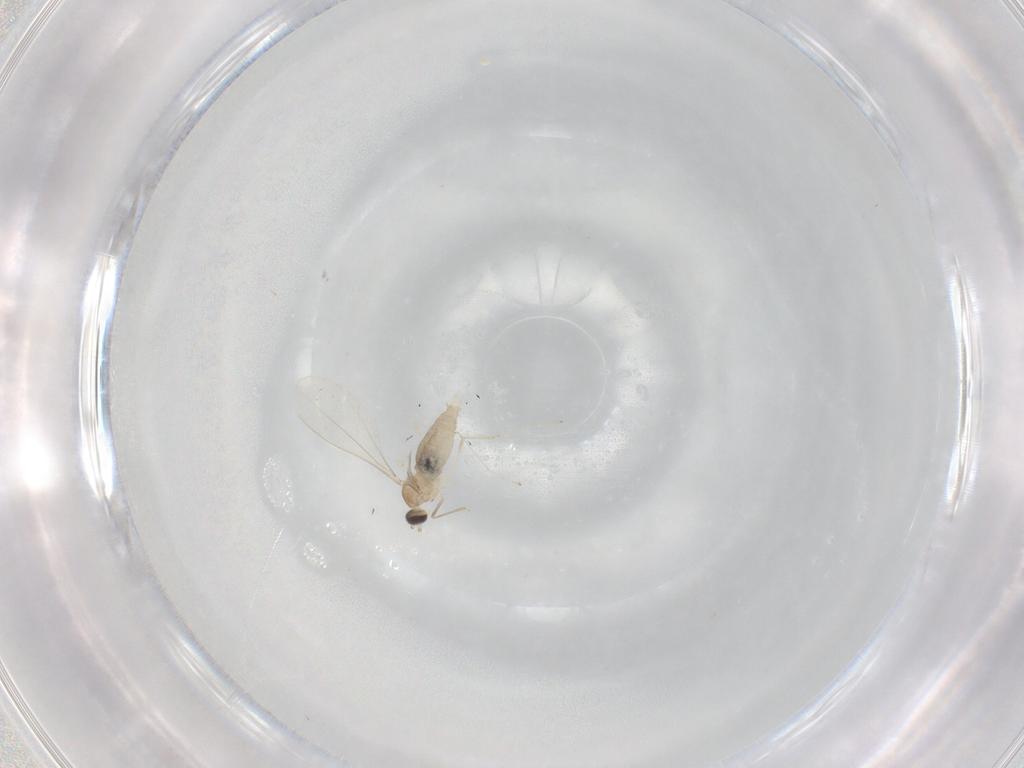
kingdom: Animalia
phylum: Arthropoda
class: Insecta
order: Diptera
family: Cecidomyiidae
